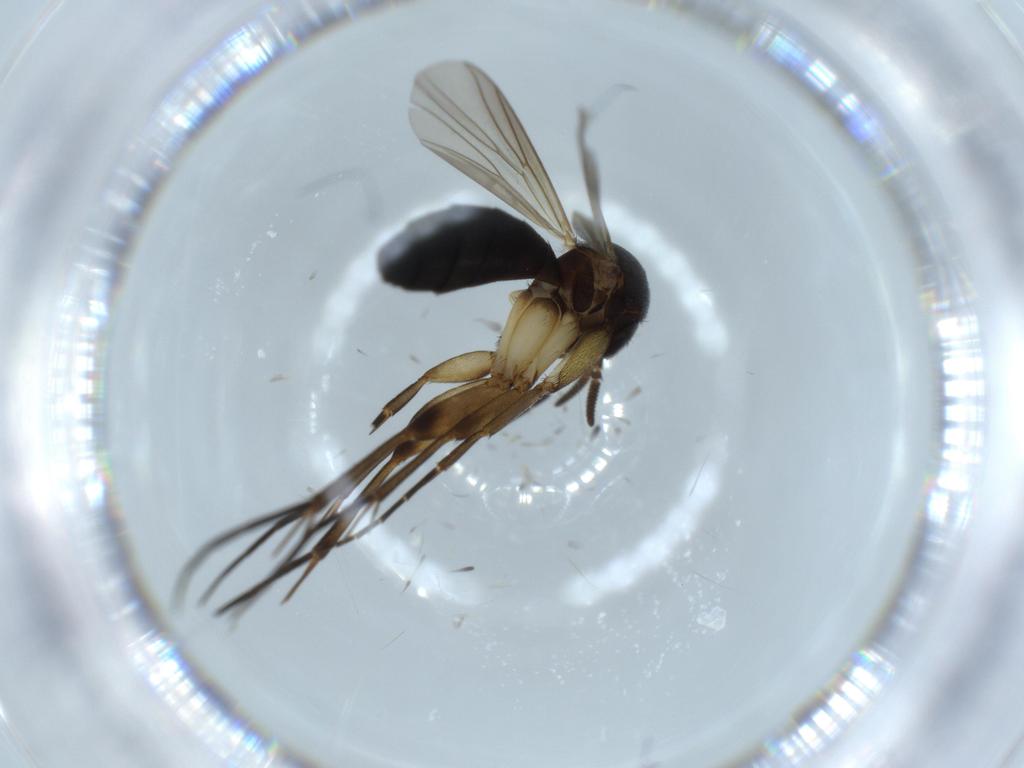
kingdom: Animalia
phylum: Arthropoda
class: Insecta
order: Diptera
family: Mycetophilidae
